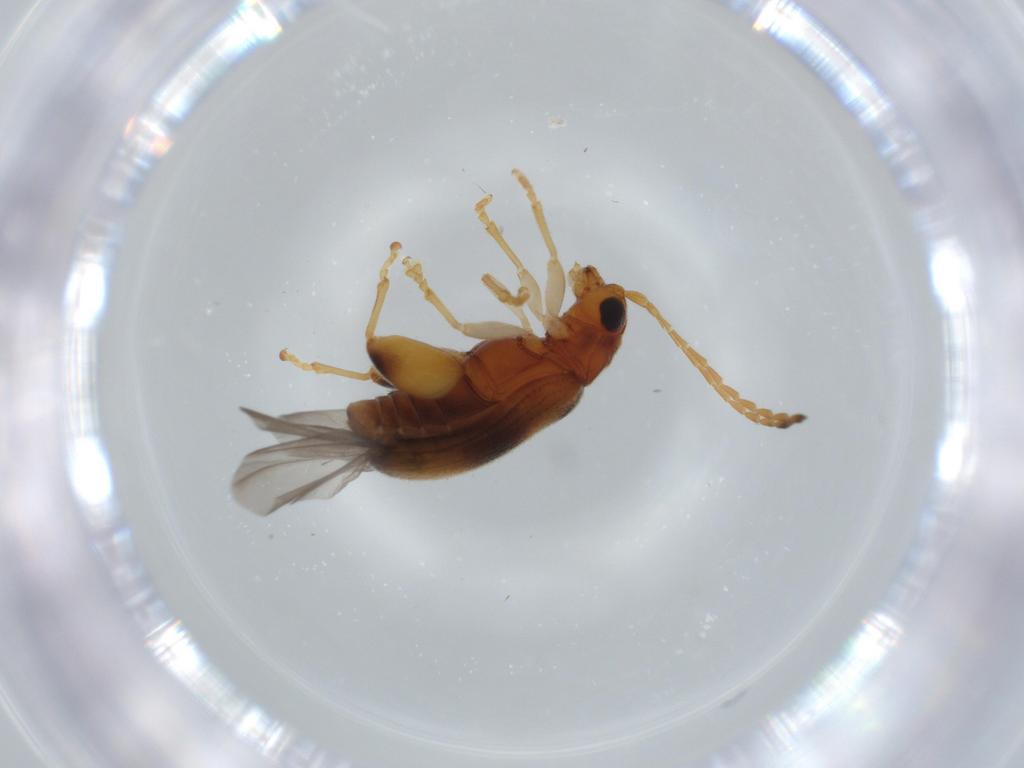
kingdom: Animalia
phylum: Arthropoda
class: Insecta
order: Coleoptera
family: Chrysomelidae
